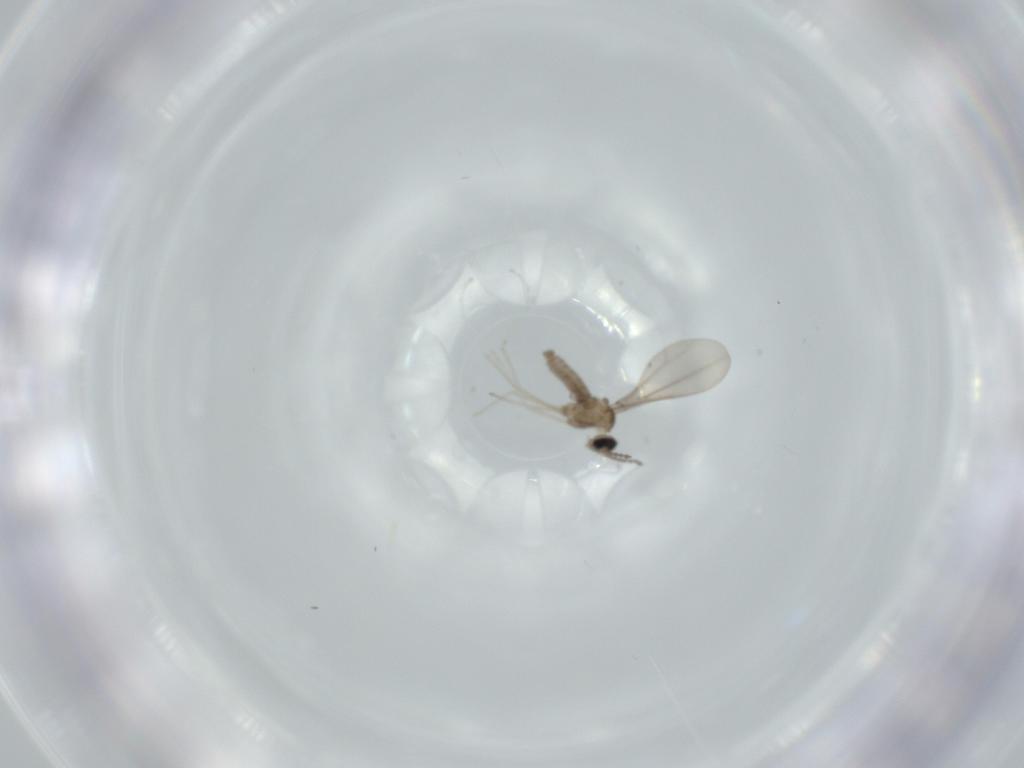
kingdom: Animalia
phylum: Arthropoda
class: Insecta
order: Diptera
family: Cecidomyiidae
